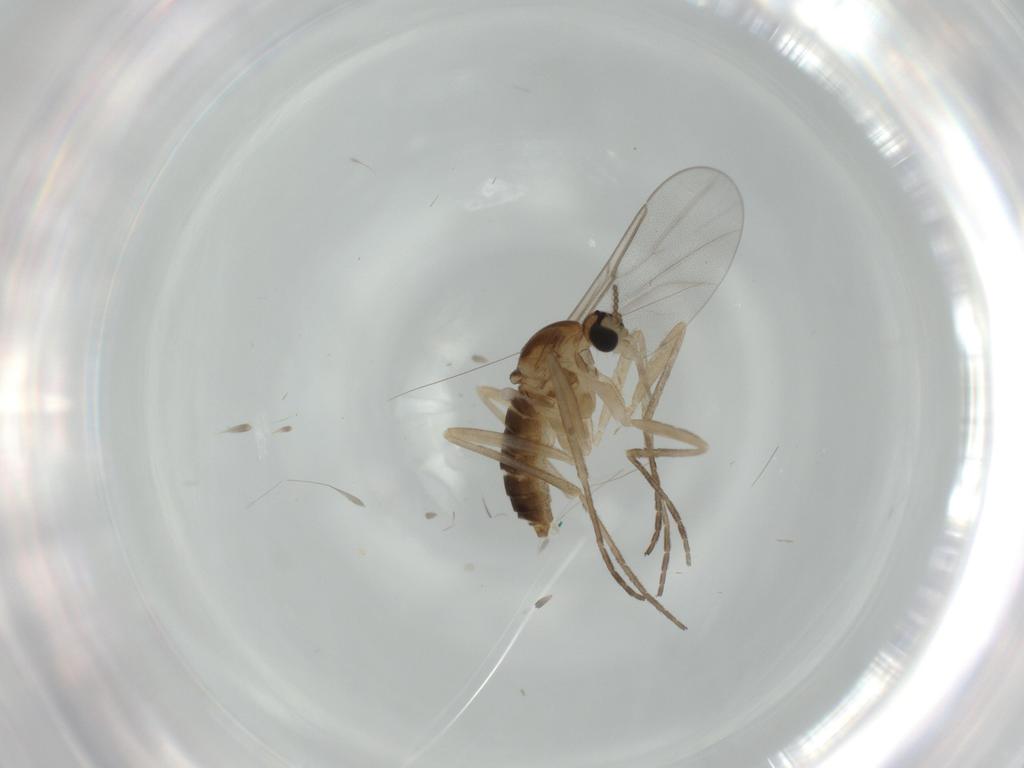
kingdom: Animalia
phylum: Arthropoda
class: Insecta
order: Diptera
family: Cecidomyiidae
